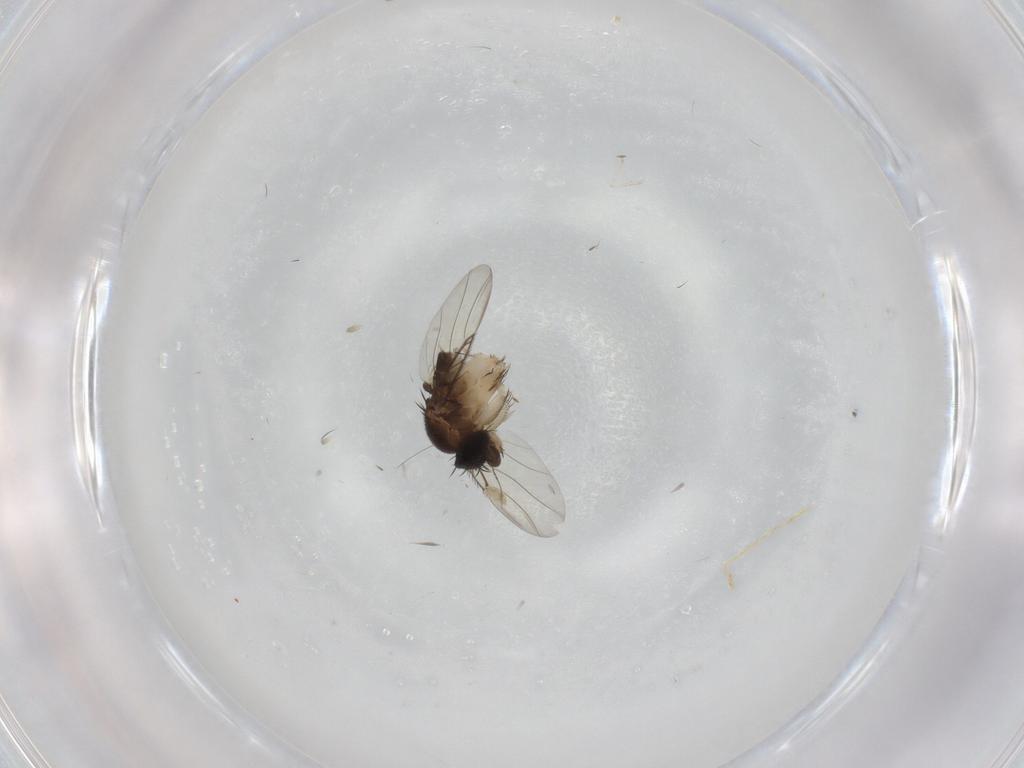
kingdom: Animalia
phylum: Arthropoda
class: Insecta
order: Diptera
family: Phoridae
